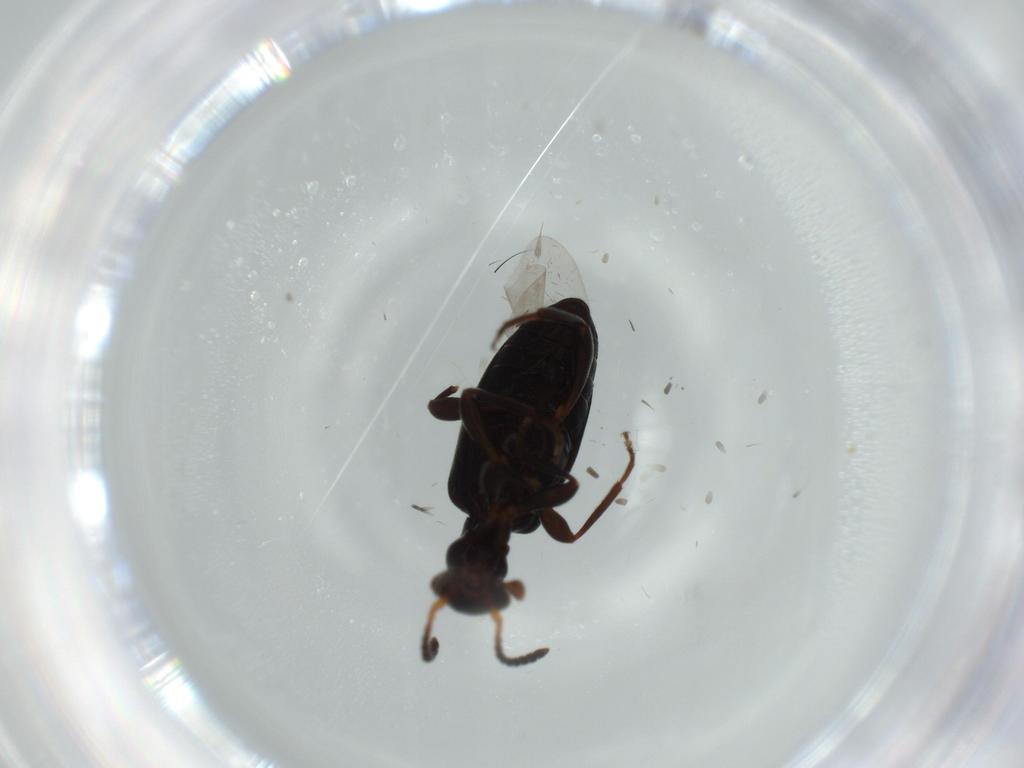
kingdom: Animalia
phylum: Arthropoda
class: Insecta
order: Coleoptera
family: Anthicidae
